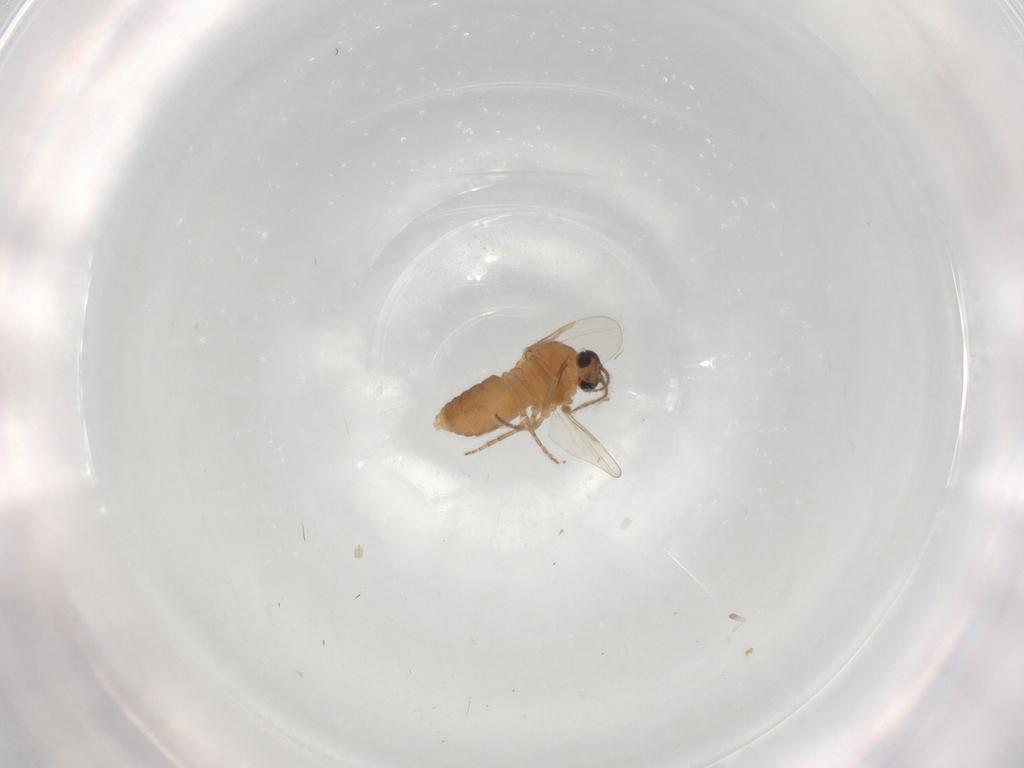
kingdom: Animalia
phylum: Arthropoda
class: Insecta
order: Diptera
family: Ceratopogonidae
